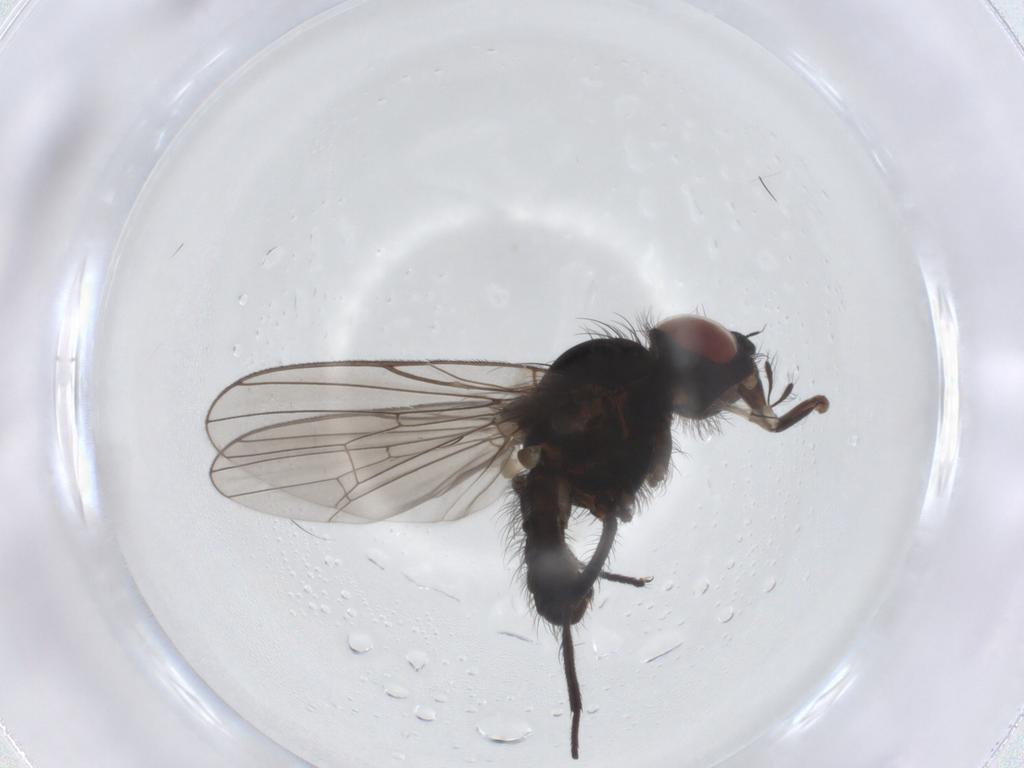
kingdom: Animalia
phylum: Arthropoda
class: Insecta
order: Diptera
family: Anthomyiidae
